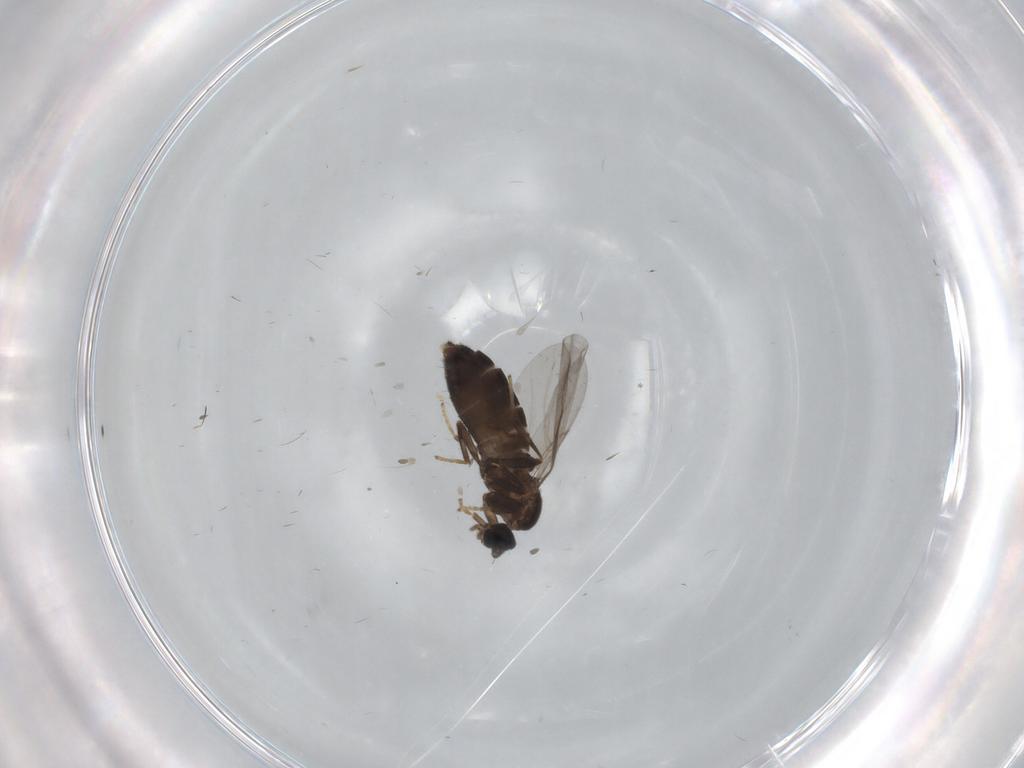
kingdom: Animalia
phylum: Arthropoda
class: Insecta
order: Diptera
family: Scatopsidae
